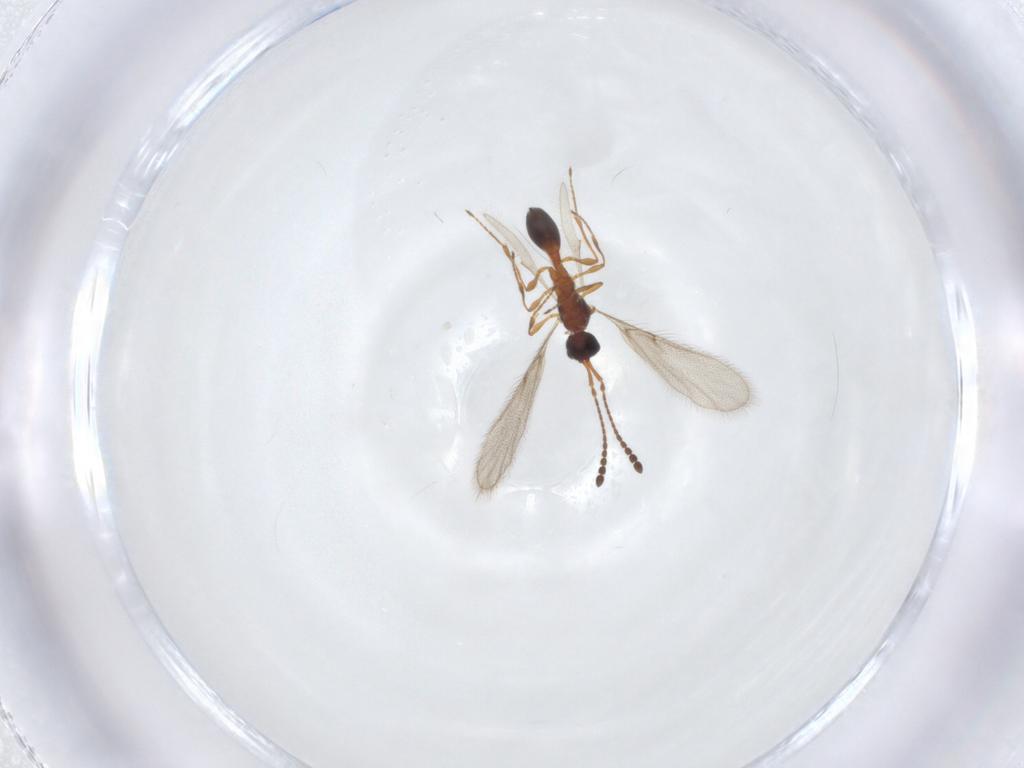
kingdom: Animalia
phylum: Arthropoda
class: Insecta
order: Hymenoptera
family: Diapriidae
